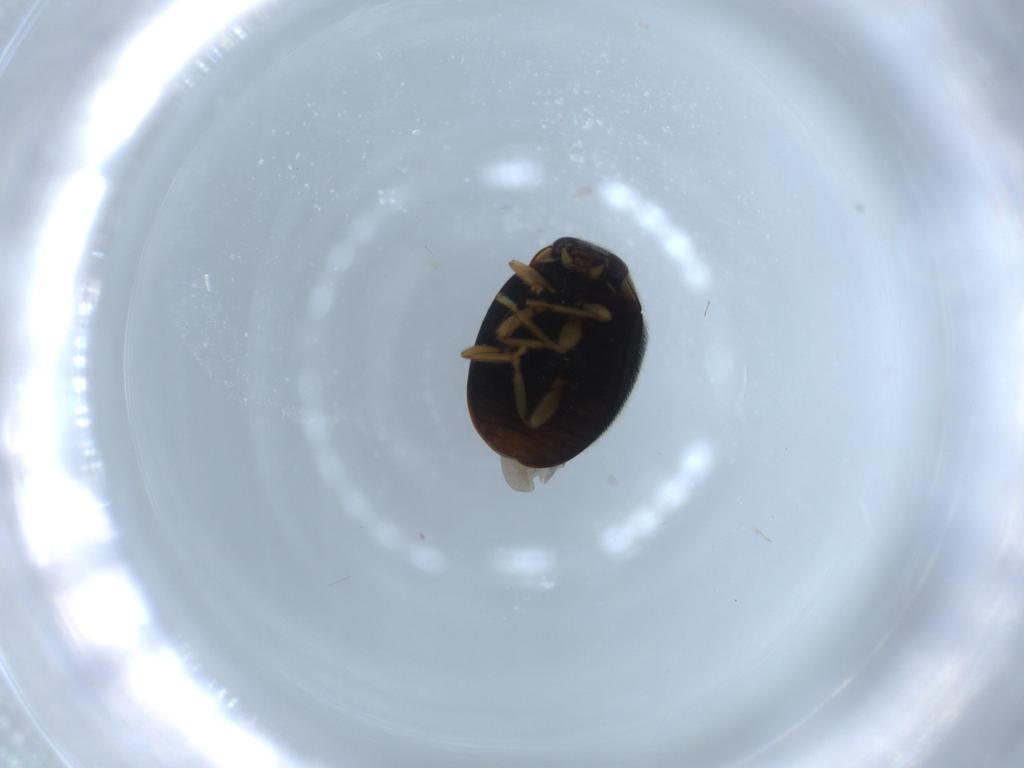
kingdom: Animalia
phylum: Arthropoda
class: Insecta
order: Coleoptera
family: Coccinellidae
